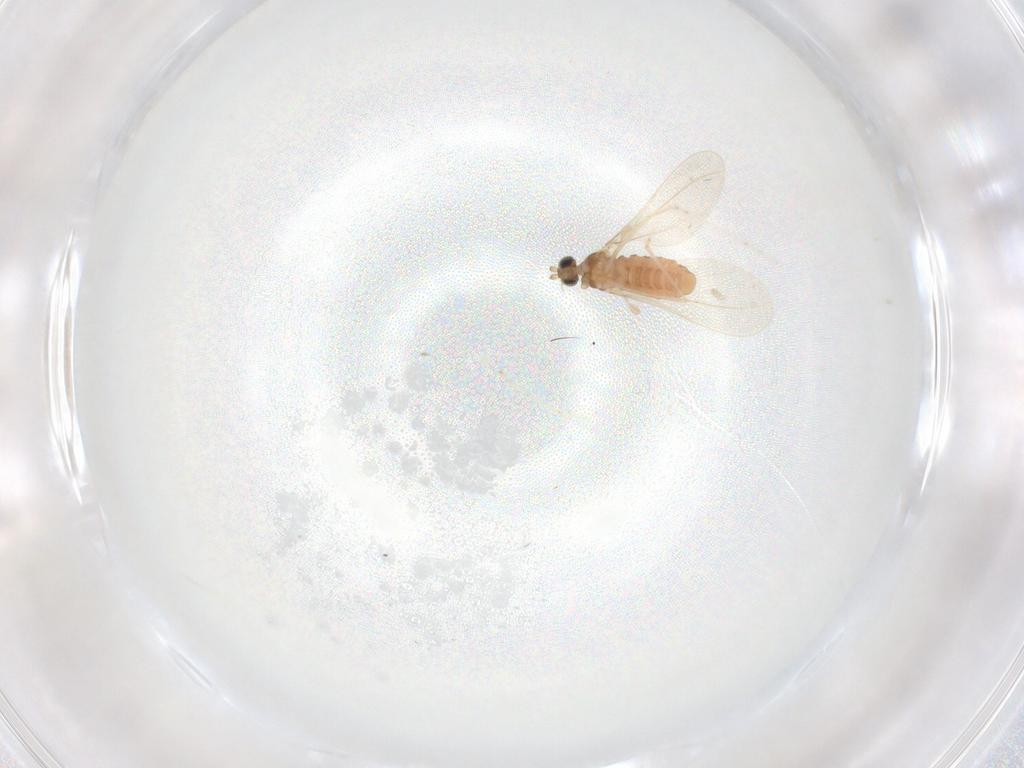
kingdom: Animalia
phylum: Arthropoda
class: Insecta
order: Diptera
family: Cecidomyiidae
